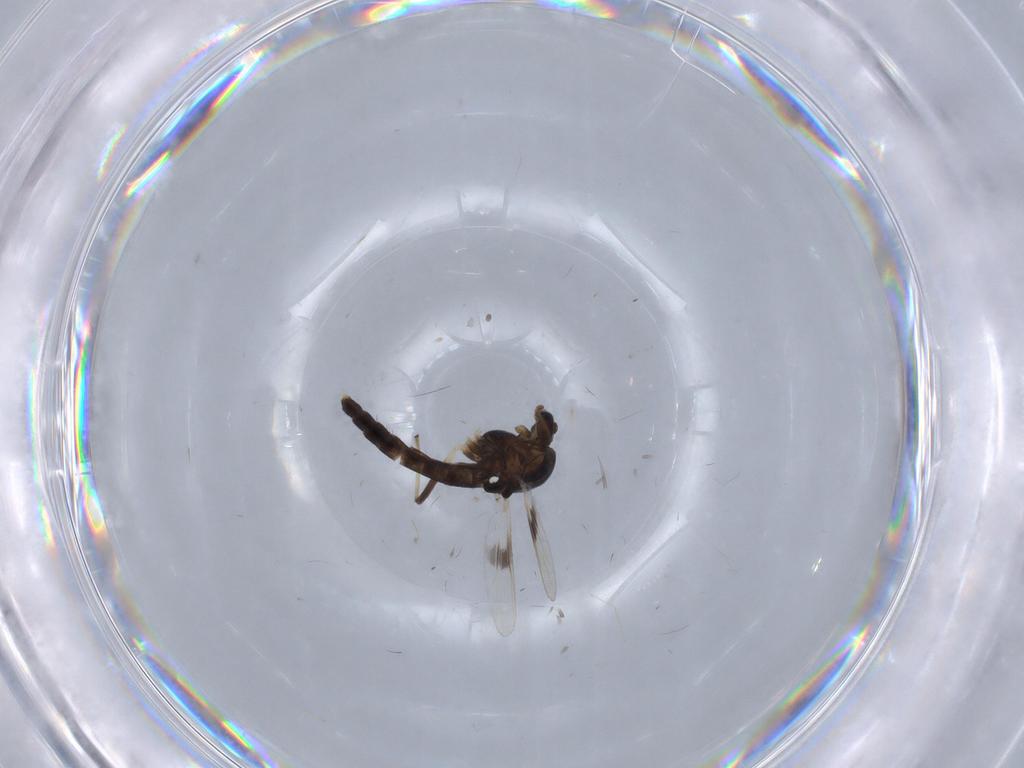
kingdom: Animalia
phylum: Arthropoda
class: Insecta
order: Diptera
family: Chironomidae
